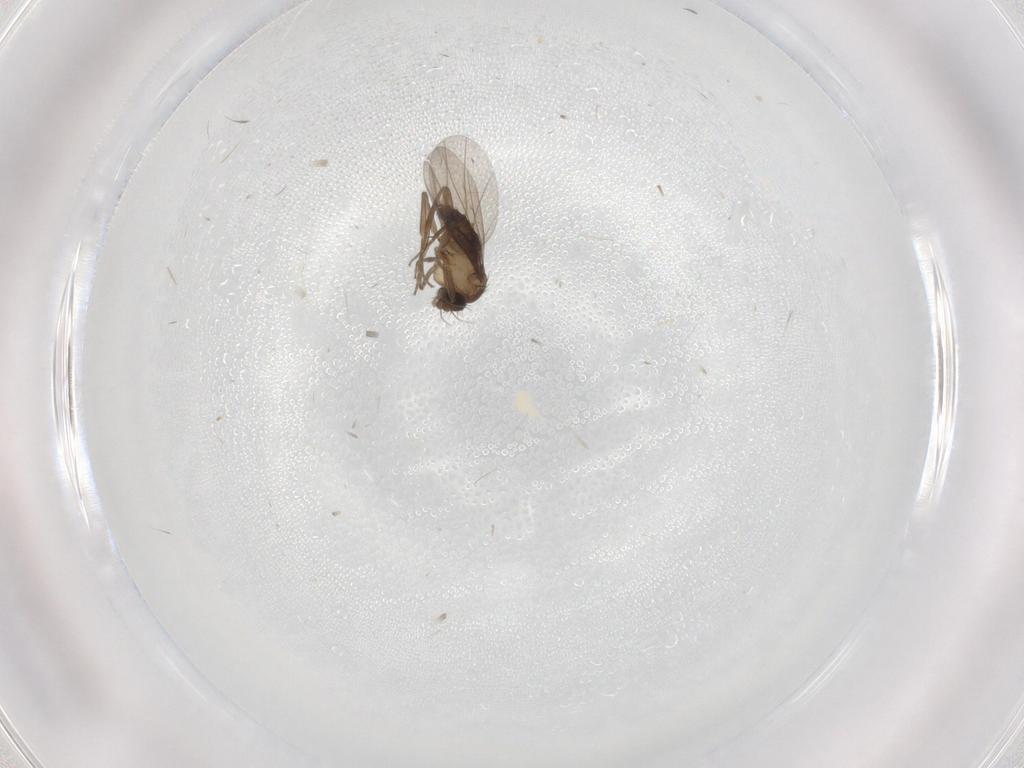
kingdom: Animalia
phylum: Arthropoda
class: Insecta
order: Diptera
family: Phoridae
